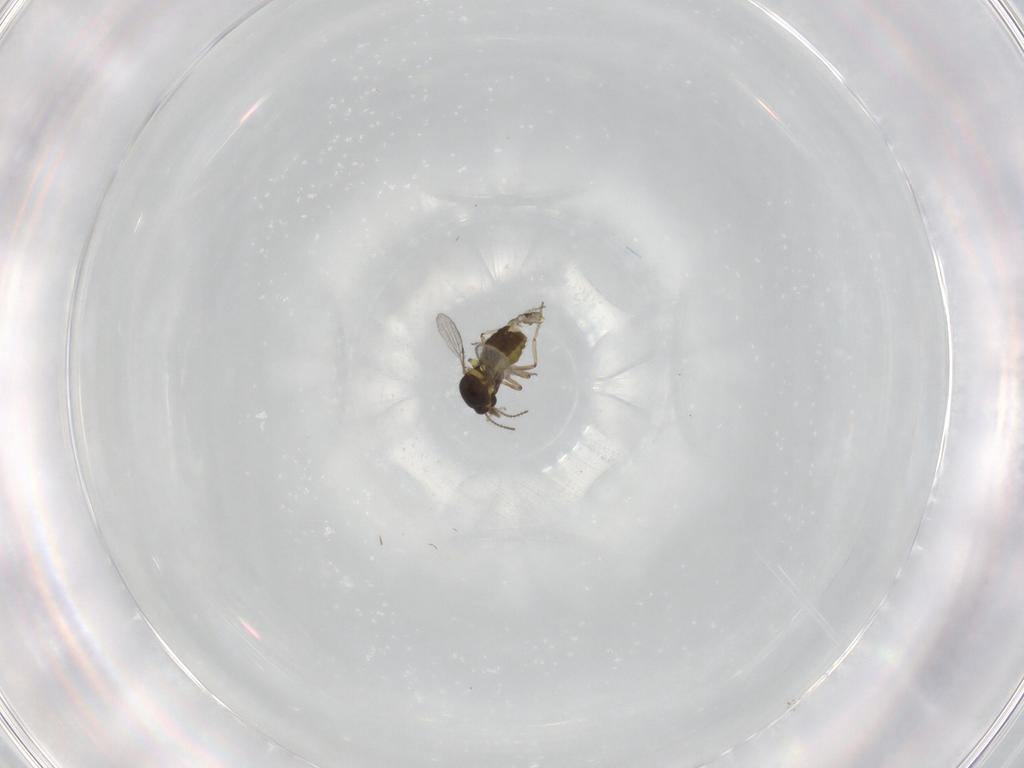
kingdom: Animalia
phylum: Arthropoda
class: Insecta
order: Diptera
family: Ceratopogonidae
